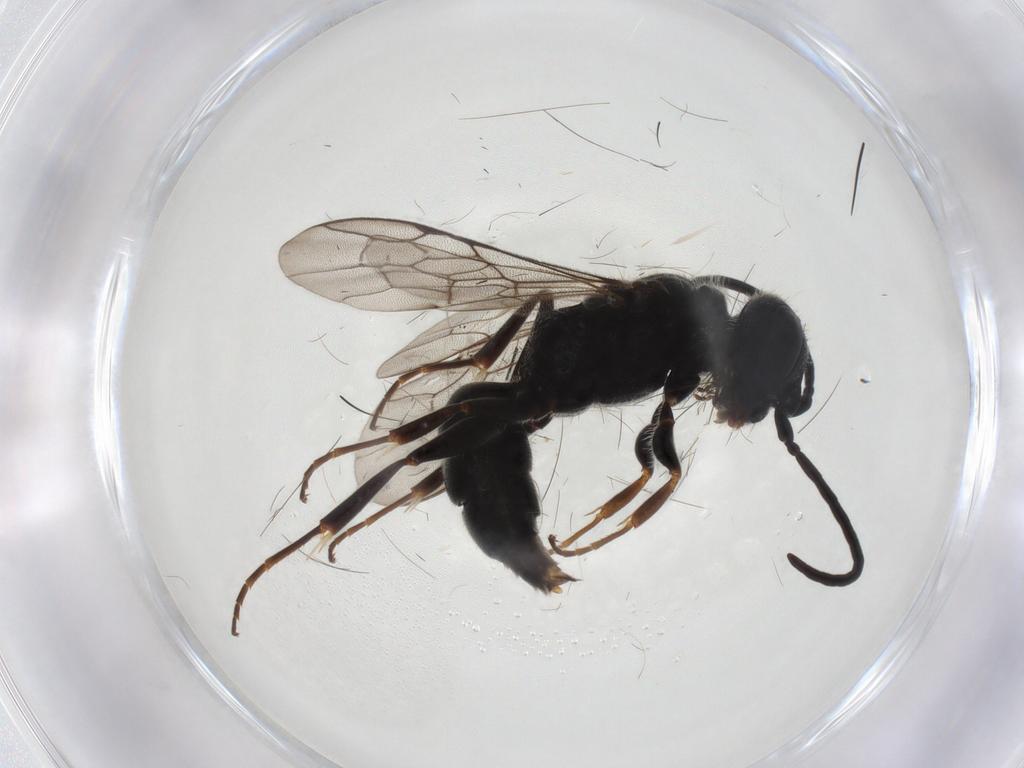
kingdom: Animalia
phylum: Arthropoda
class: Insecta
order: Hymenoptera
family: Ampulicidae
